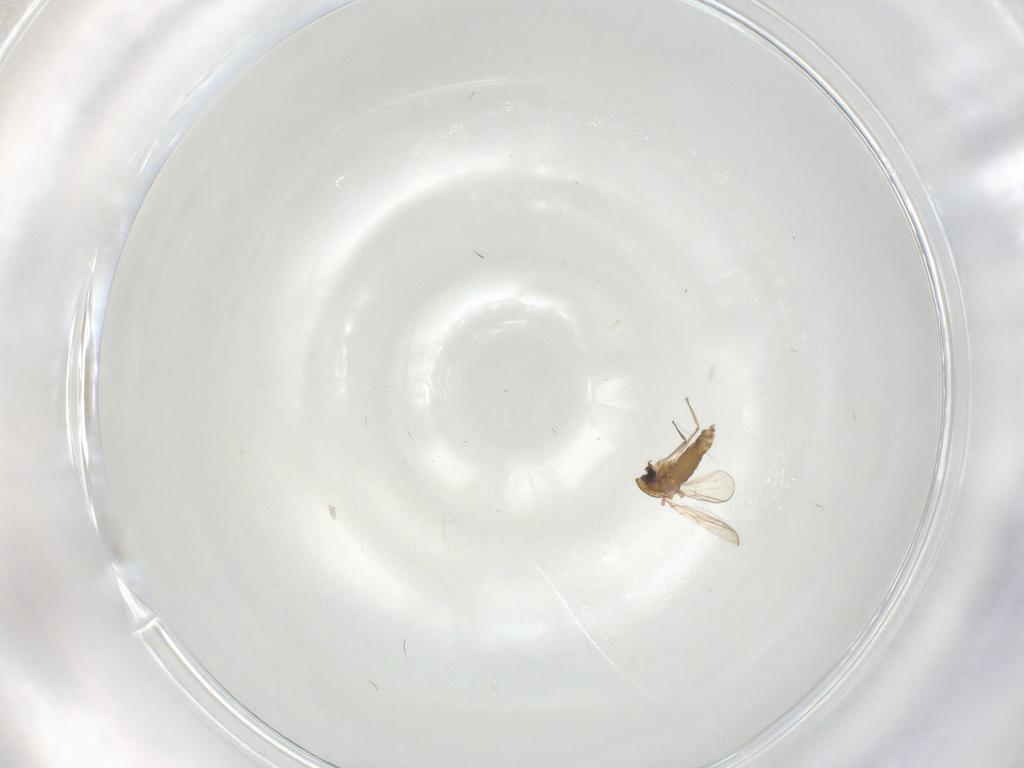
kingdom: Animalia
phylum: Arthropoda
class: Insecta
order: Diptera
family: Chironomidae
